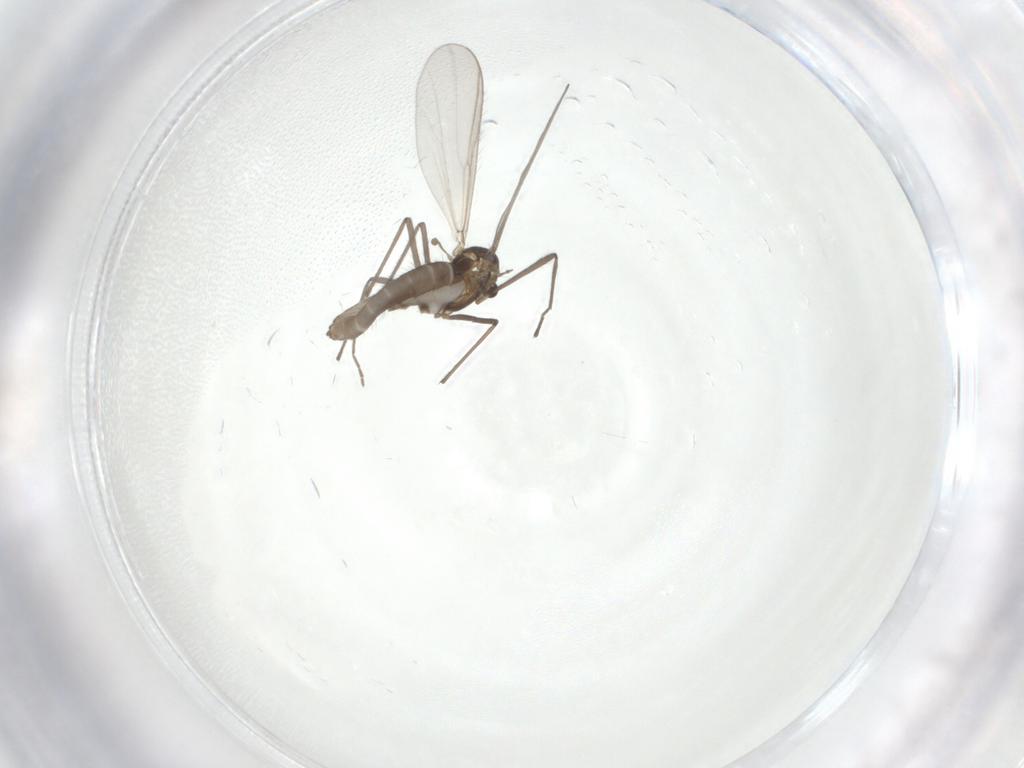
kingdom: Animalia
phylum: Arthropoda
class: Insecta
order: Diptera
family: Chironomidae
